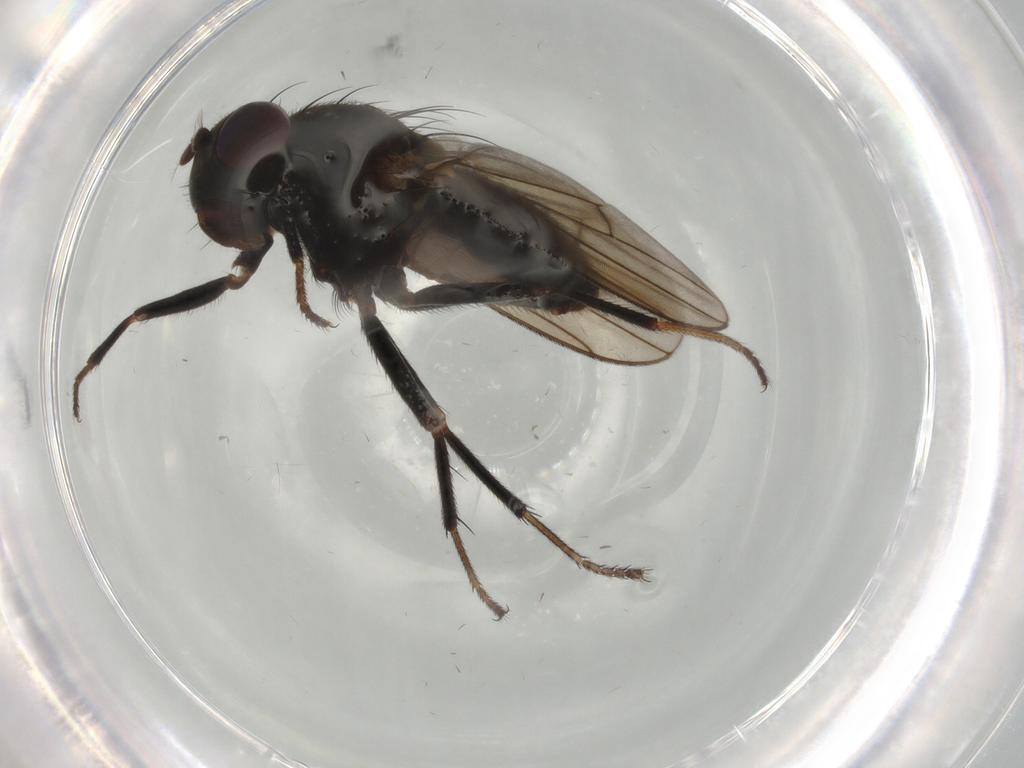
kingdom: Animalia
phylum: Arthropoda
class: Insecta
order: Diptera
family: Ephydridae
